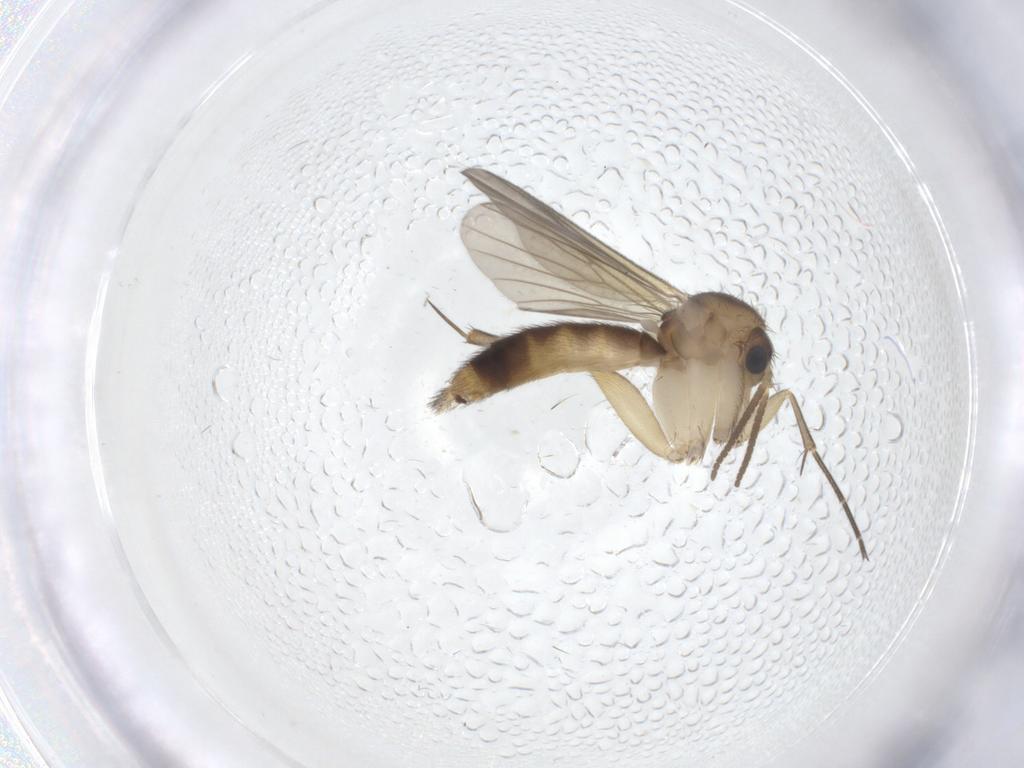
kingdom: Animalia
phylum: Arthropoda
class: Insecta
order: Diptera
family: Mycetophilidae
